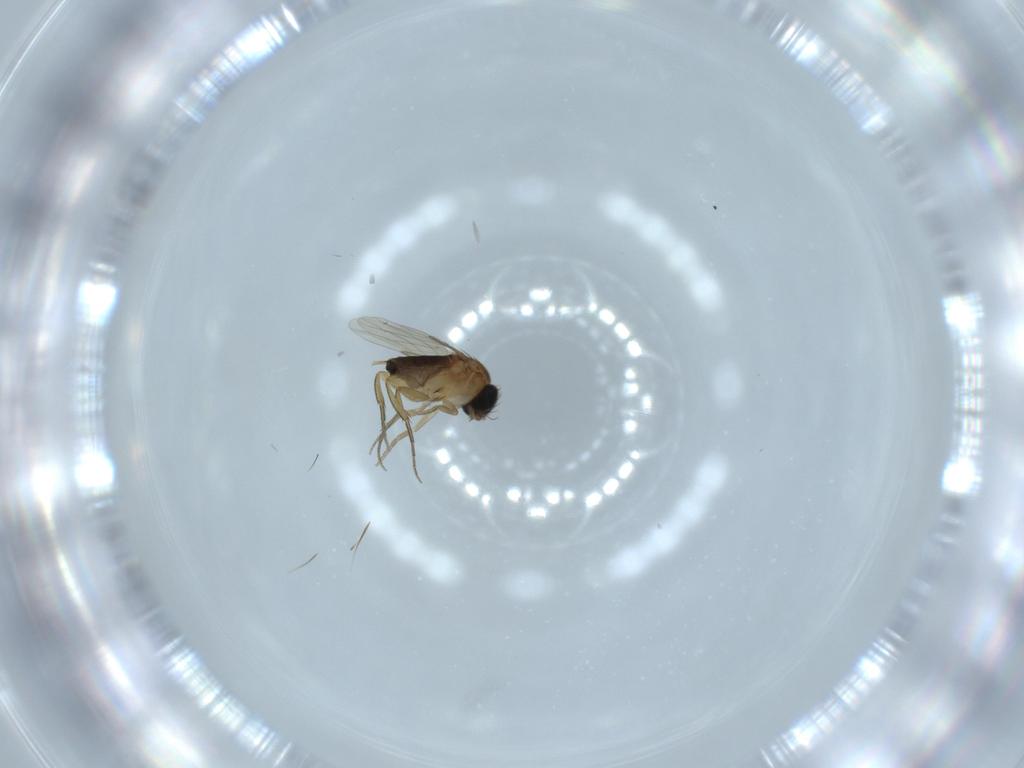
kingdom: Animalia
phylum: Arthropoda
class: Insecta
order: Diptera
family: Phoridae
